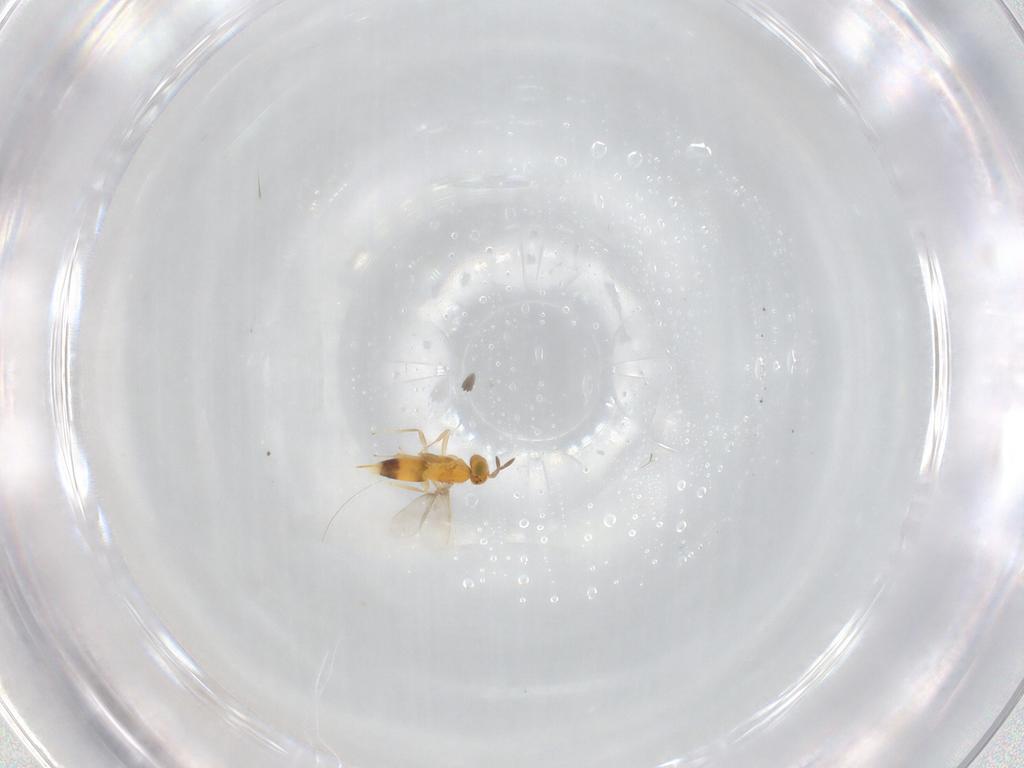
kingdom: Animalia
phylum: Arthropoda
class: Insecta
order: Hymenoptera
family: Aphelinidae
